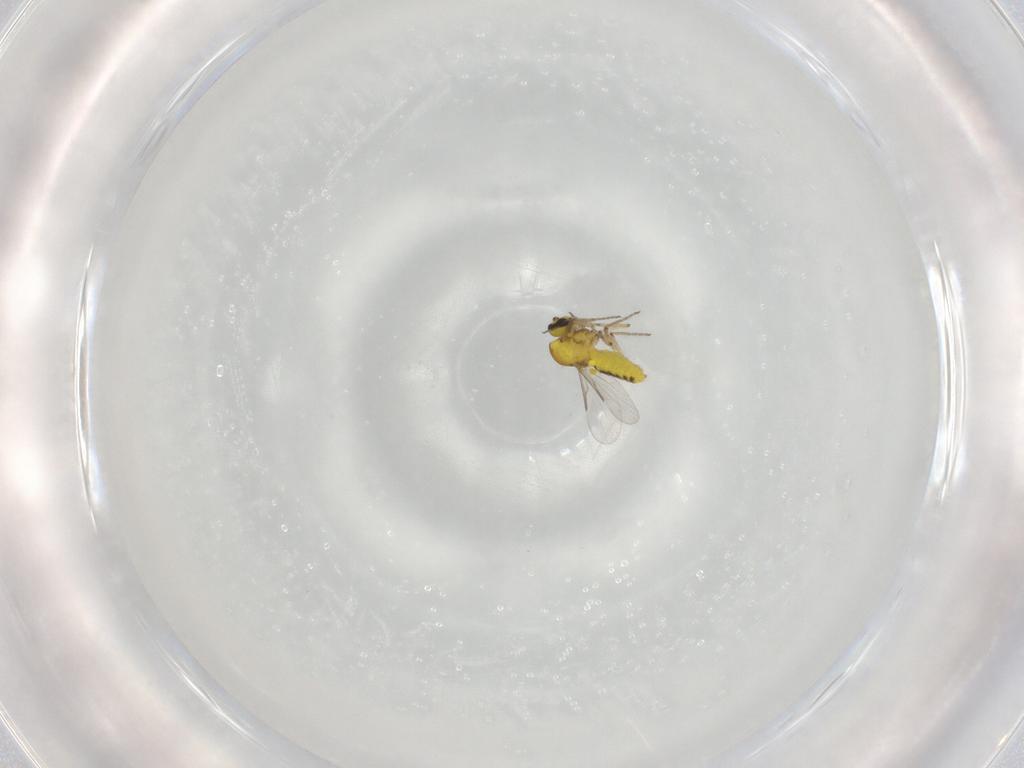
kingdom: Animalia
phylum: Arthropoda
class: Insecta
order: Diptera
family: Ceratopogonidae
